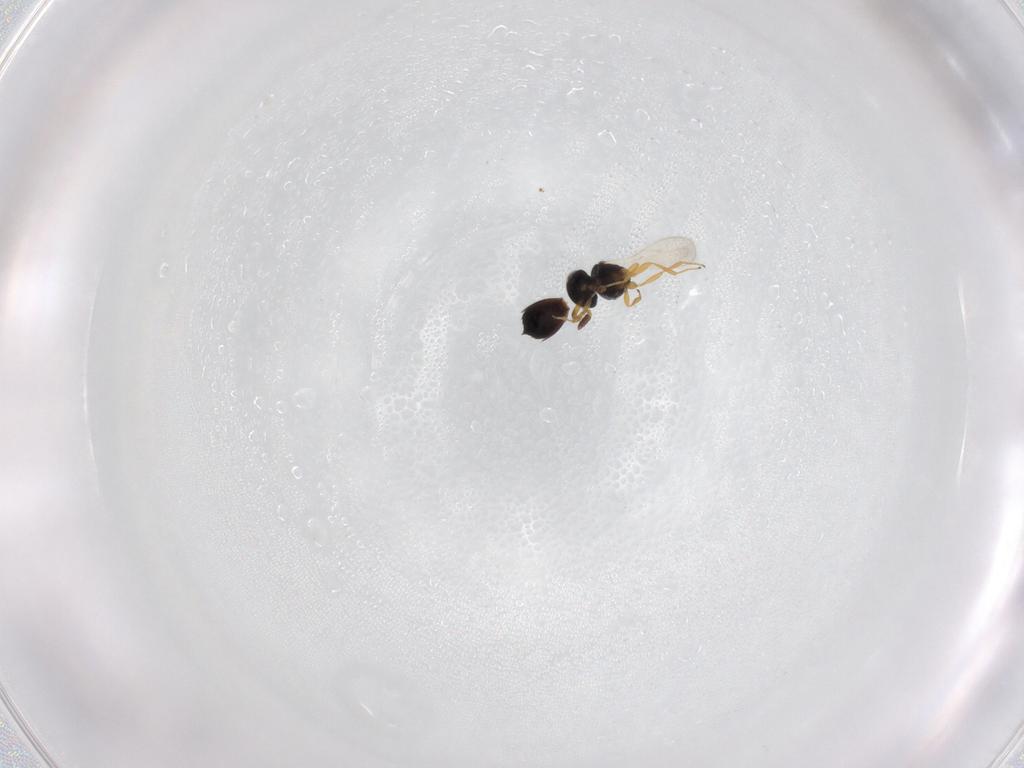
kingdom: Animalia
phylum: Arthropoda
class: Insecta
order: Hymenoptera
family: Scelionidae
